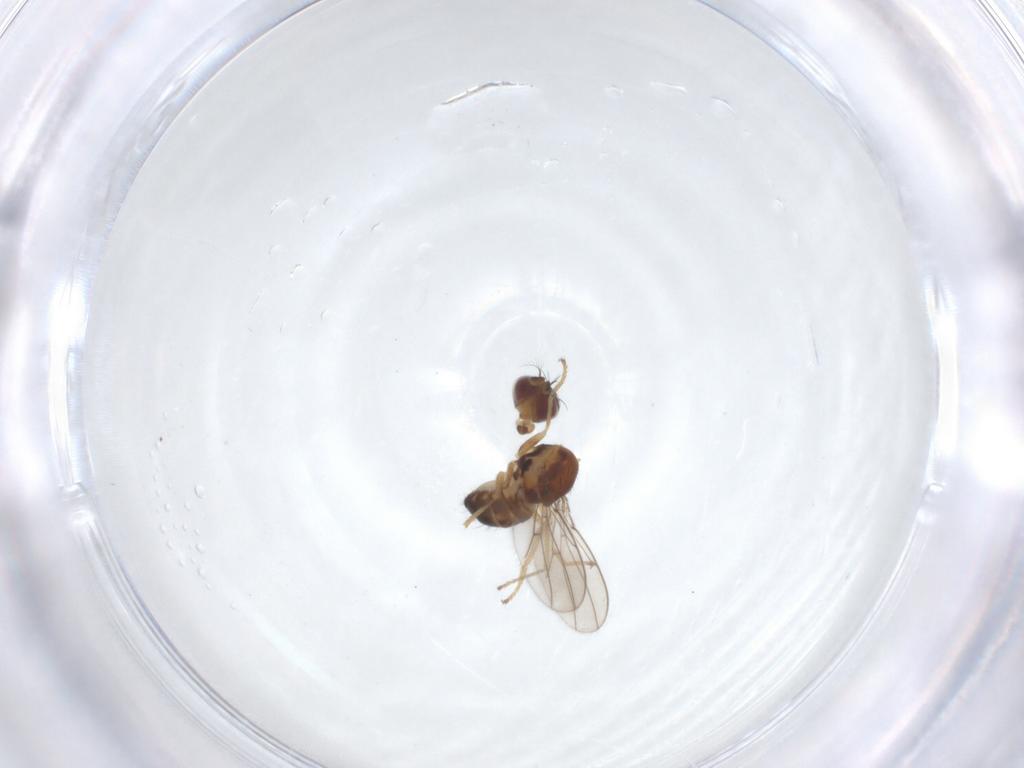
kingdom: Animalia
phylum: Arthropoda
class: Insecta
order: Diptera
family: Ephydridae
